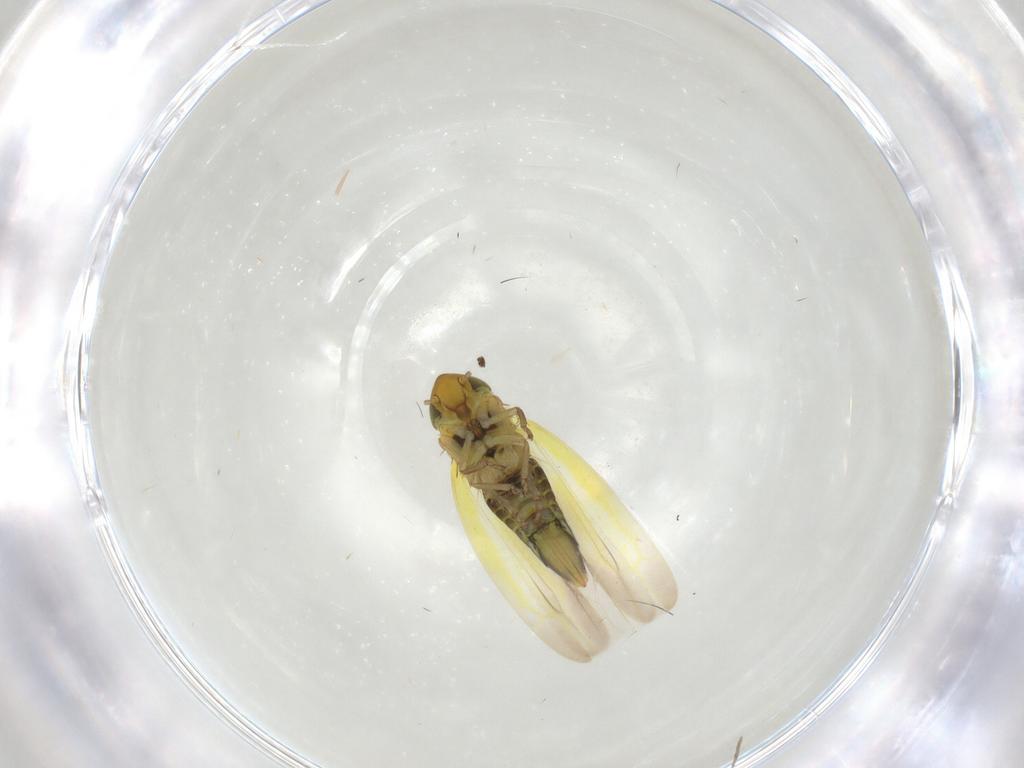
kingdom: Animalia
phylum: Arthropoda
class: Insecta
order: Hemiptera
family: Cicadellidae
